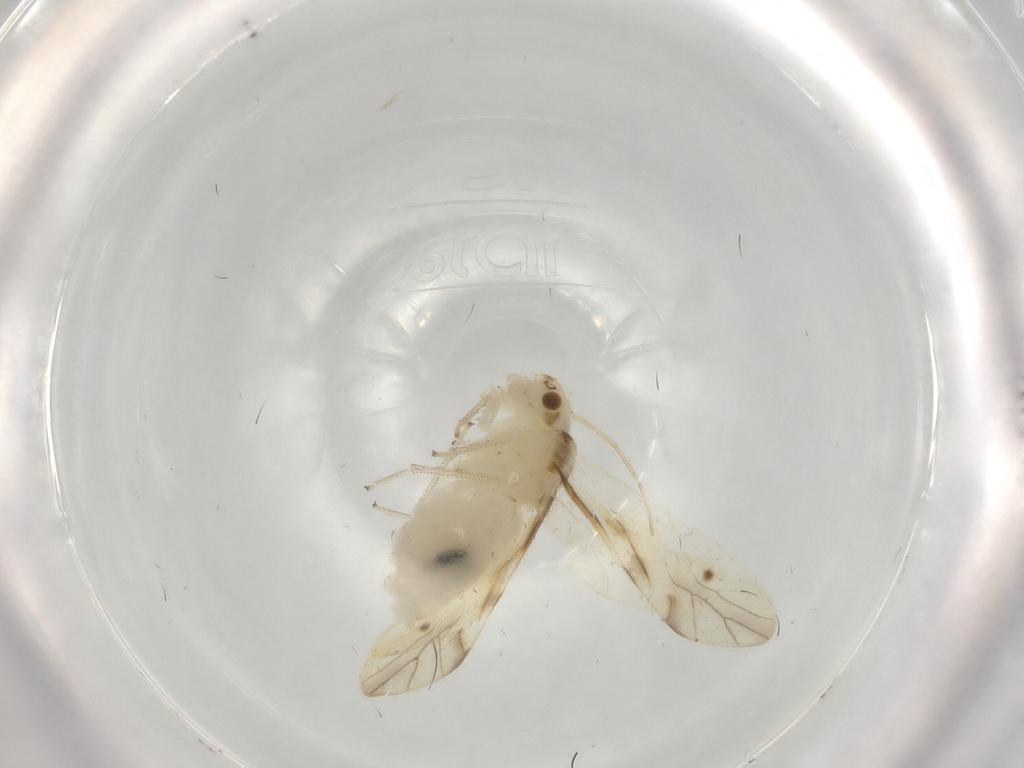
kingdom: Animalia
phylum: Arthropoda
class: Insecta
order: Psocodea
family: Caeciliusidae
